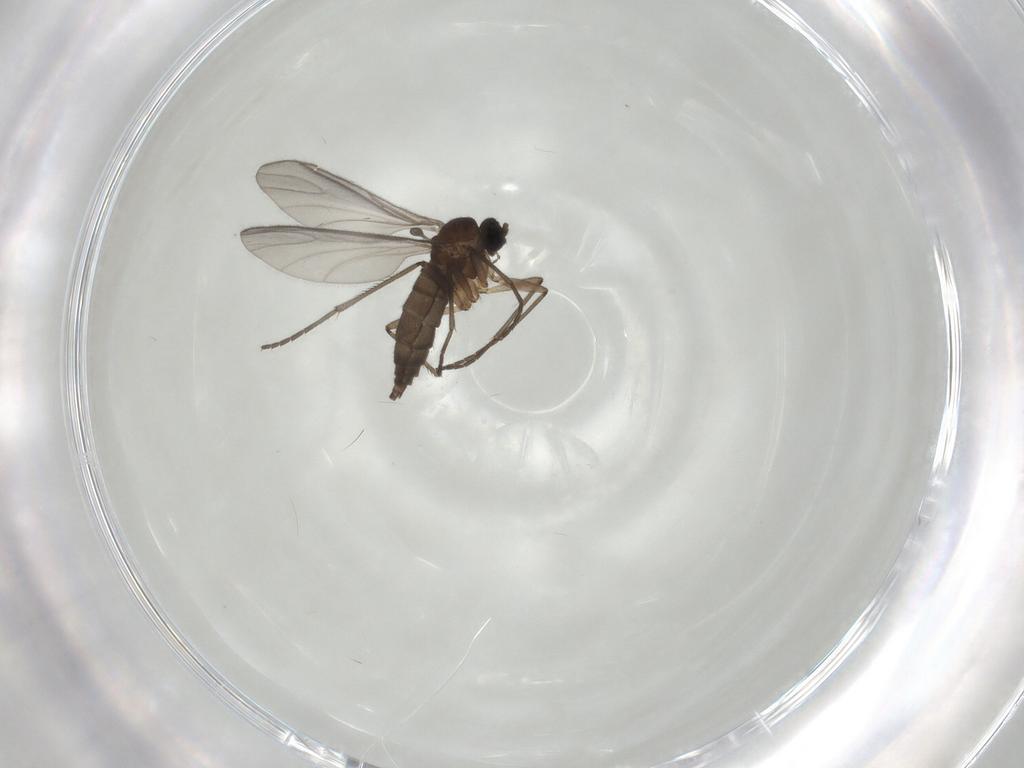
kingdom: Animalia
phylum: Arthropoda
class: Insecta
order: Diptera
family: Sciaridae
